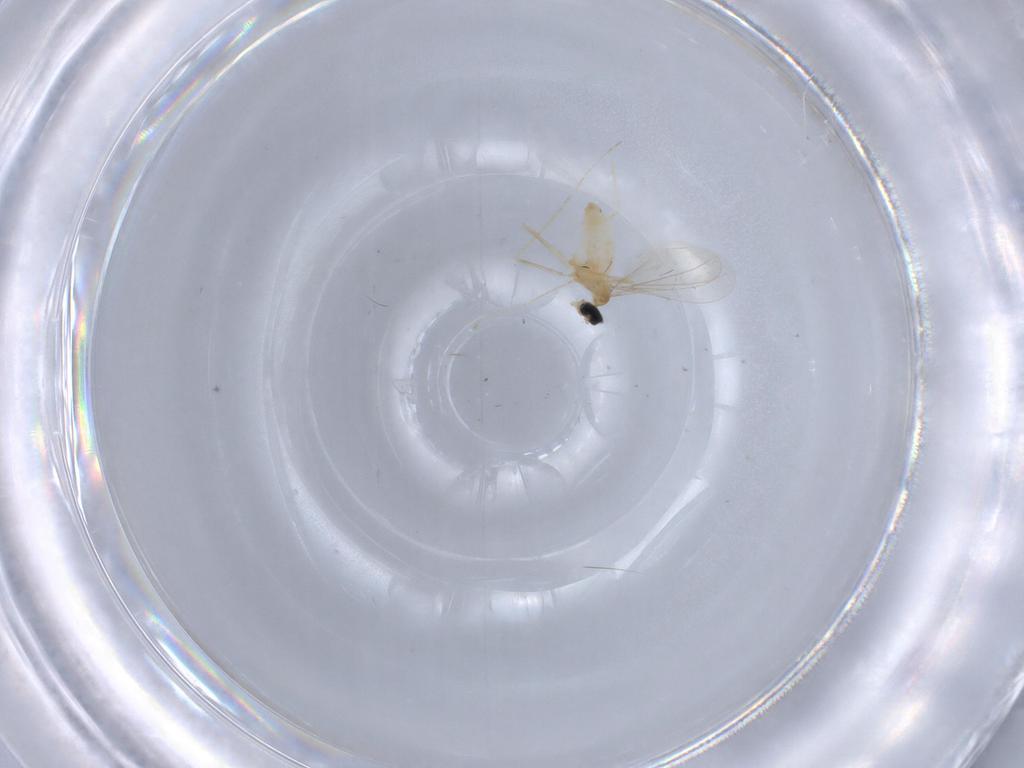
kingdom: Animalia
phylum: Arthropoda
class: Insecta
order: Diptera
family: Cecidomyiidae
